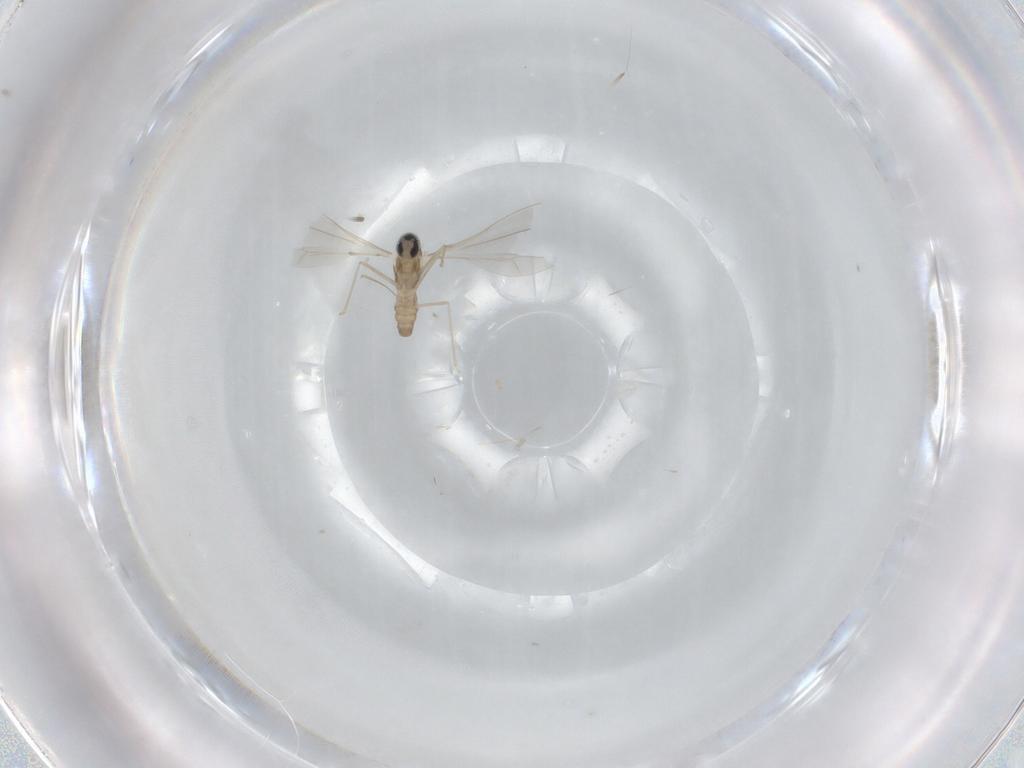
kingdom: Animalia
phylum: Arthropoda
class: Insecta
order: Diptera
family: Cecidomyiidae
